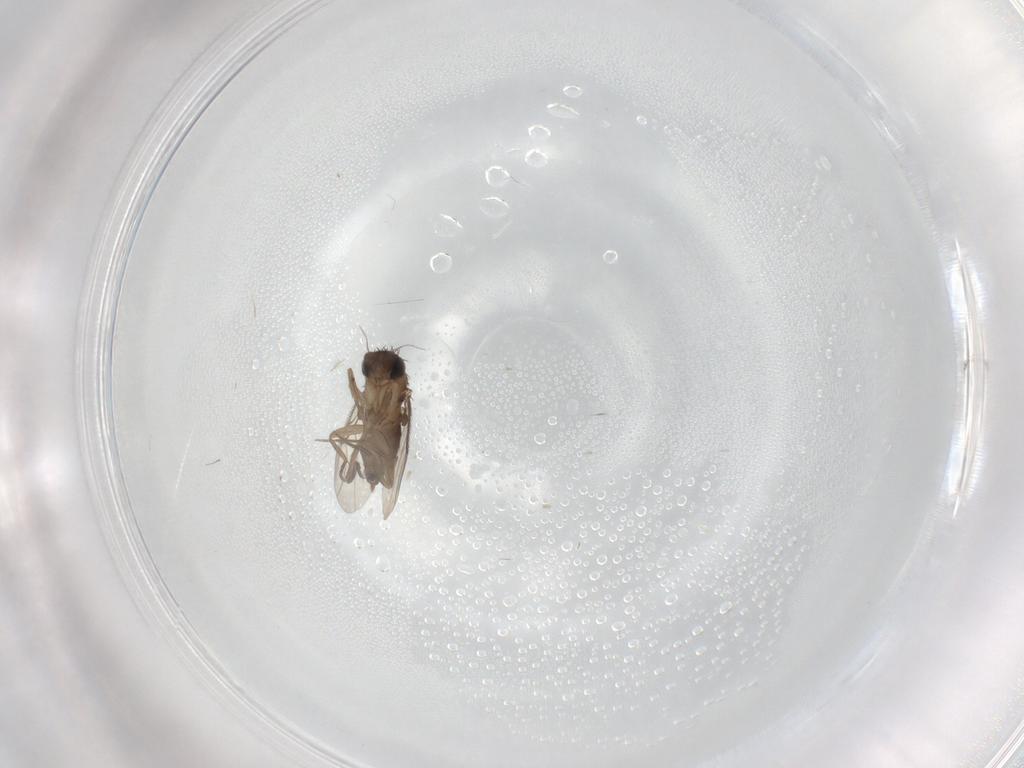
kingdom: Animalia
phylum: Arthropoda
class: Insecta
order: Diptera
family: Phoridae
